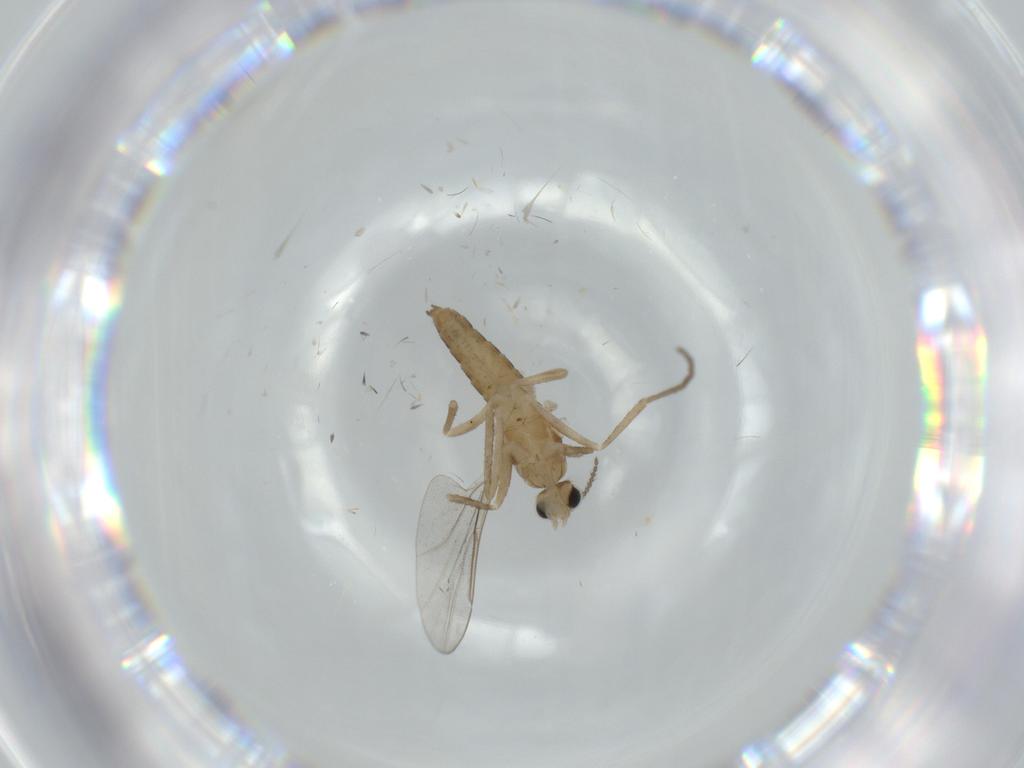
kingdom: Animalia
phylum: Arthropoda
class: Insecta
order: Diptera
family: Cecidomyiidae
